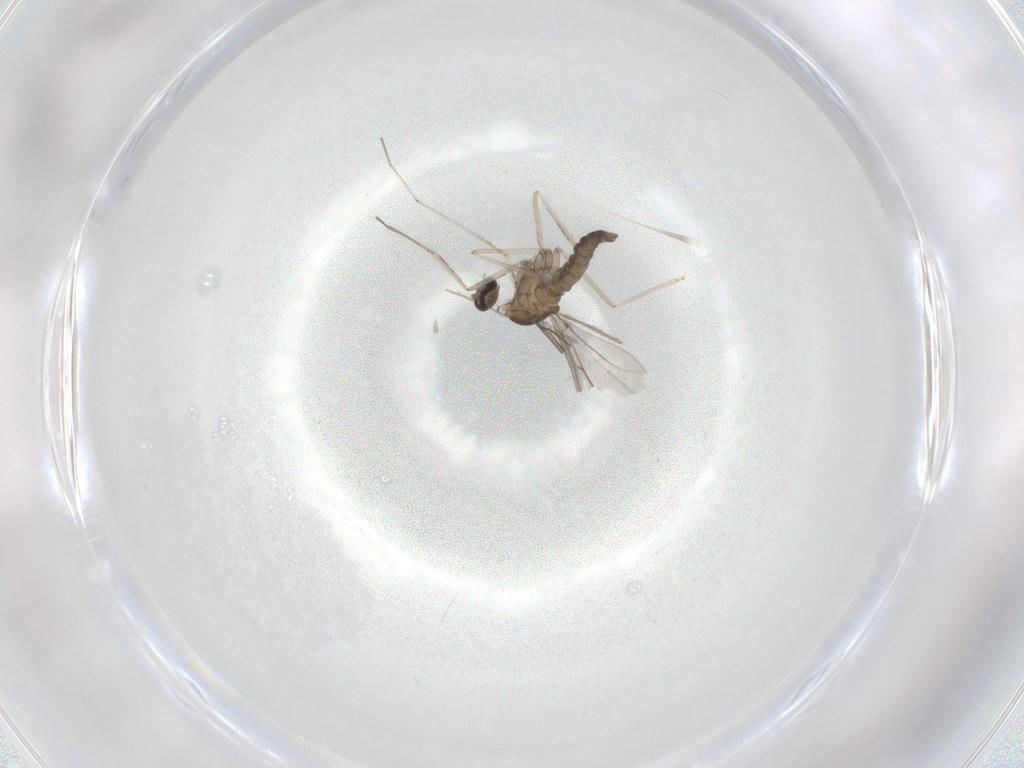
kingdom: Animalia
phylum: Arthropoda
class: Insecta
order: Diptera
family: Cecidomyiidae
